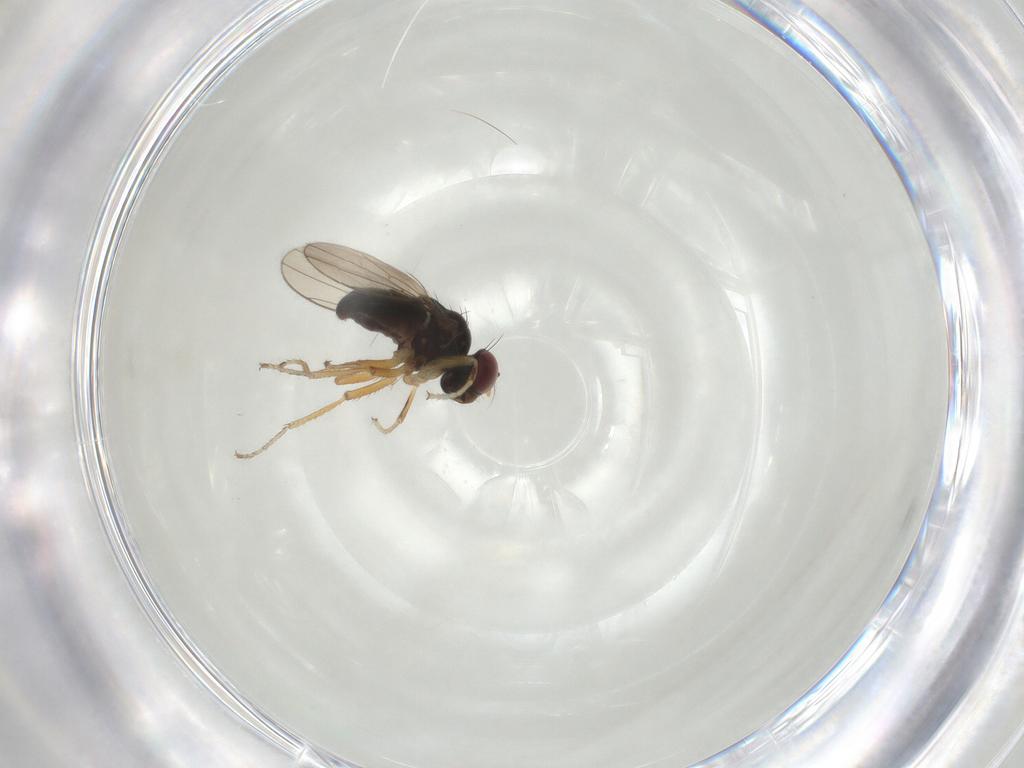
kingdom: Animalia
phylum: Arthropoda
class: Insecta
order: Diptera
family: Ephydridae
